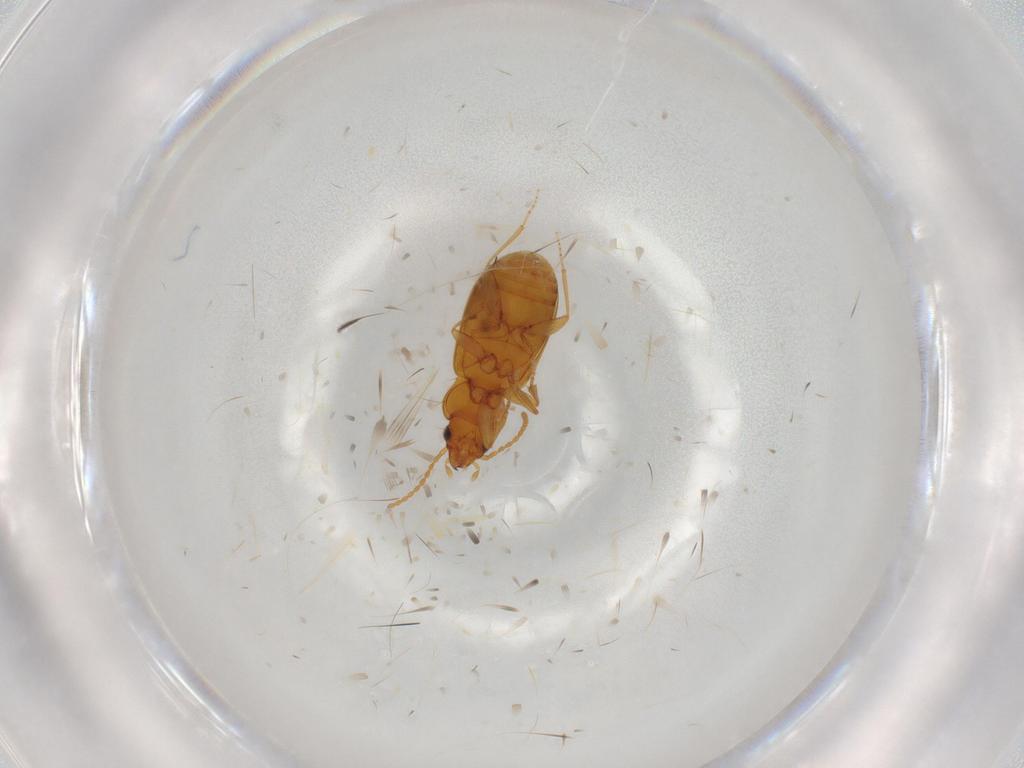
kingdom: Animalia
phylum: Arthropoda
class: Insecta
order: Coleoptera
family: Carabidae
